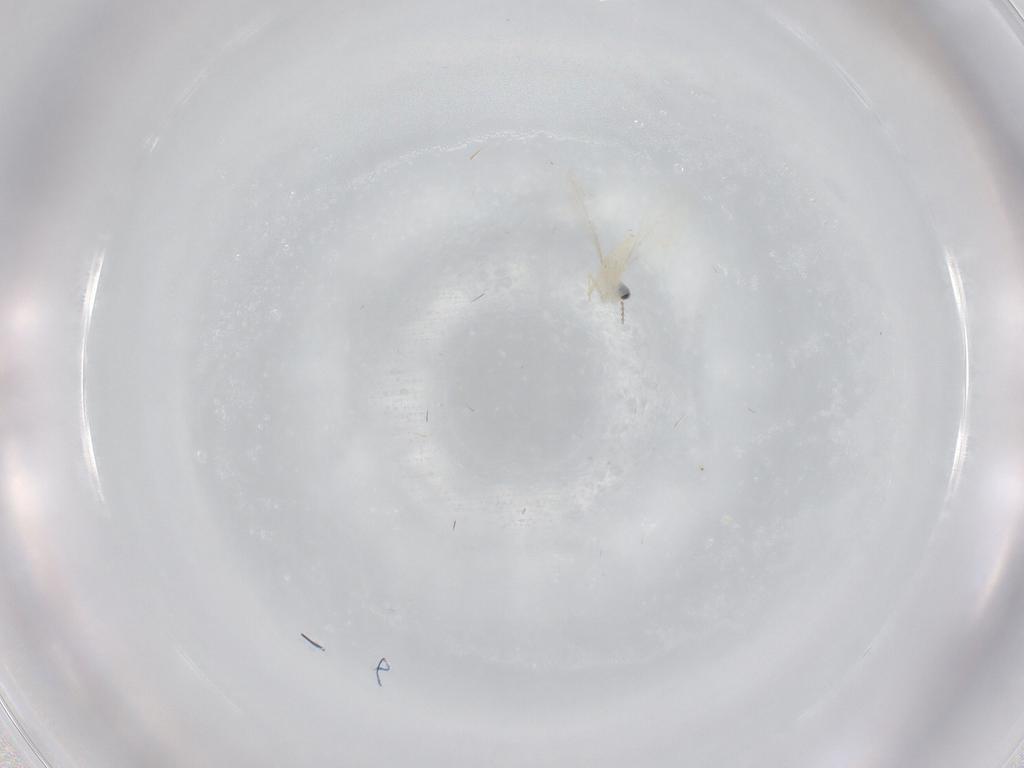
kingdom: Animalia
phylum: Arthropoda
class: Insecta
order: Diptera
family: Cecidomyiidae
